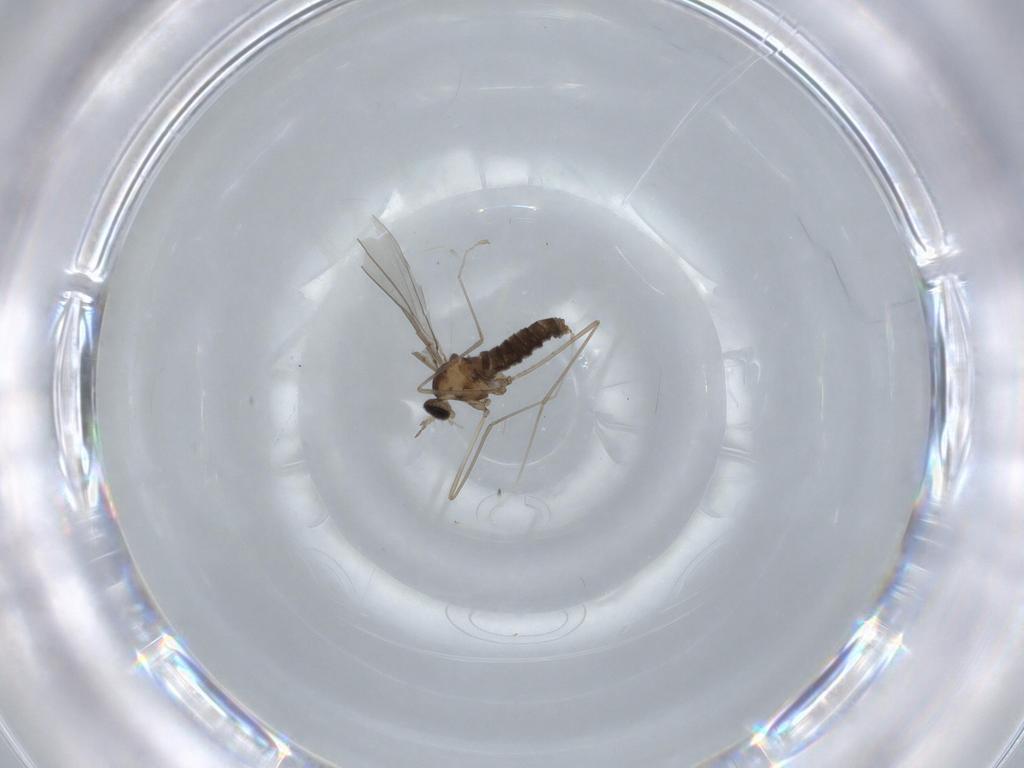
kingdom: Animalia
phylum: Arthropoda
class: Insecta
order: Diptera
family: Cecidomyiidae
